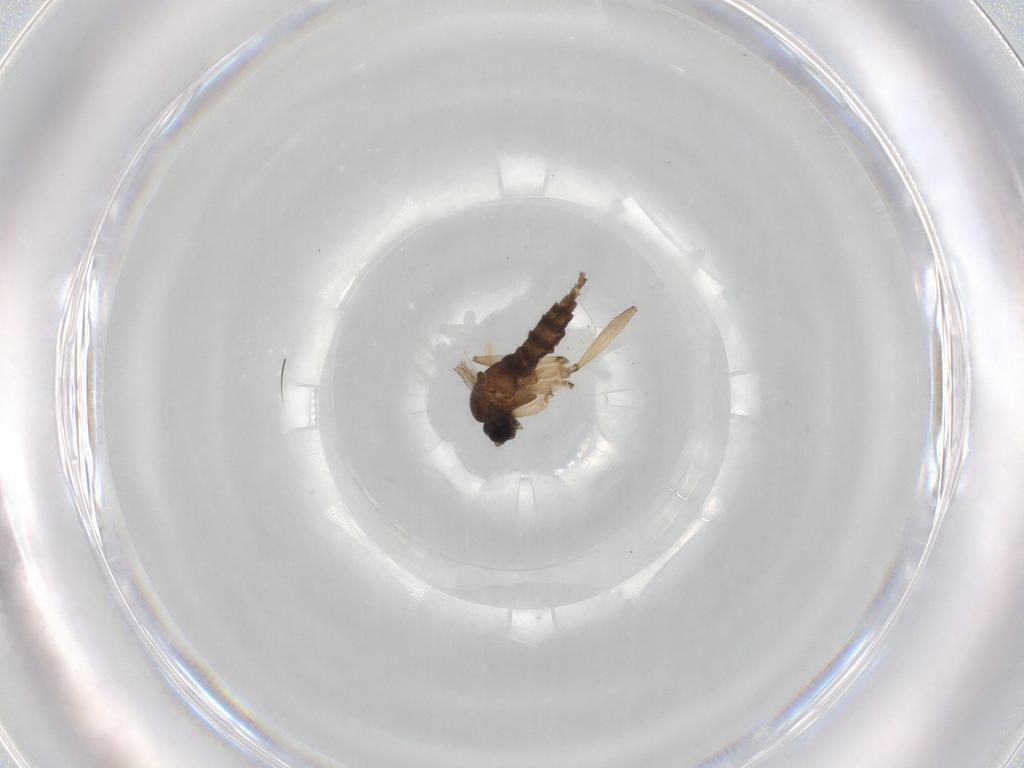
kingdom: Animalia
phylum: Arthropoda
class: Insecta
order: Diptera
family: Sciaridae
